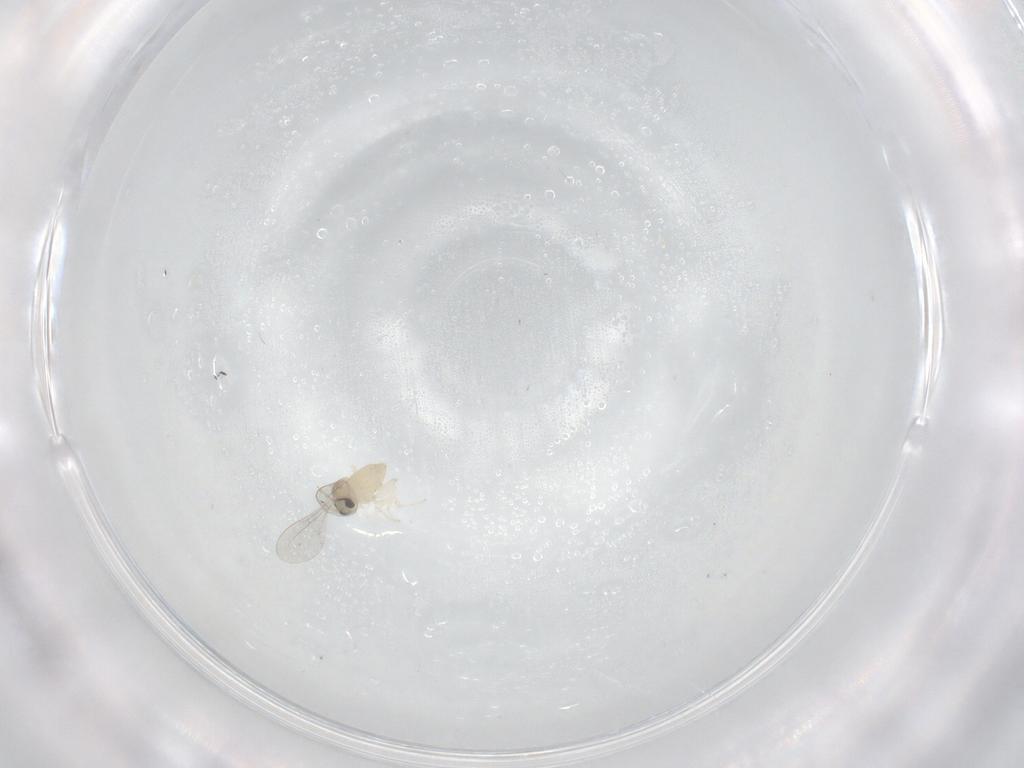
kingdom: Animalia
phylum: Arthropoda
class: Insecta
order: Diptera
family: Cecidomyiidae
